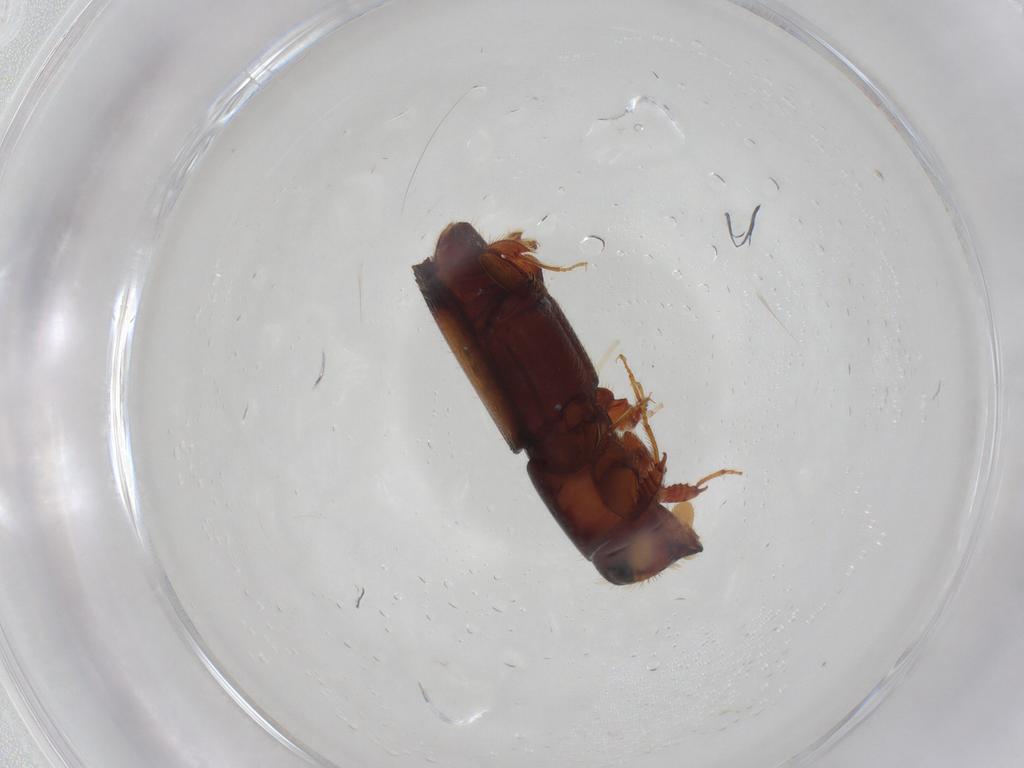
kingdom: Animalia
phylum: Arthropoda
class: Insecta
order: Coleoptera
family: Curculionidae
